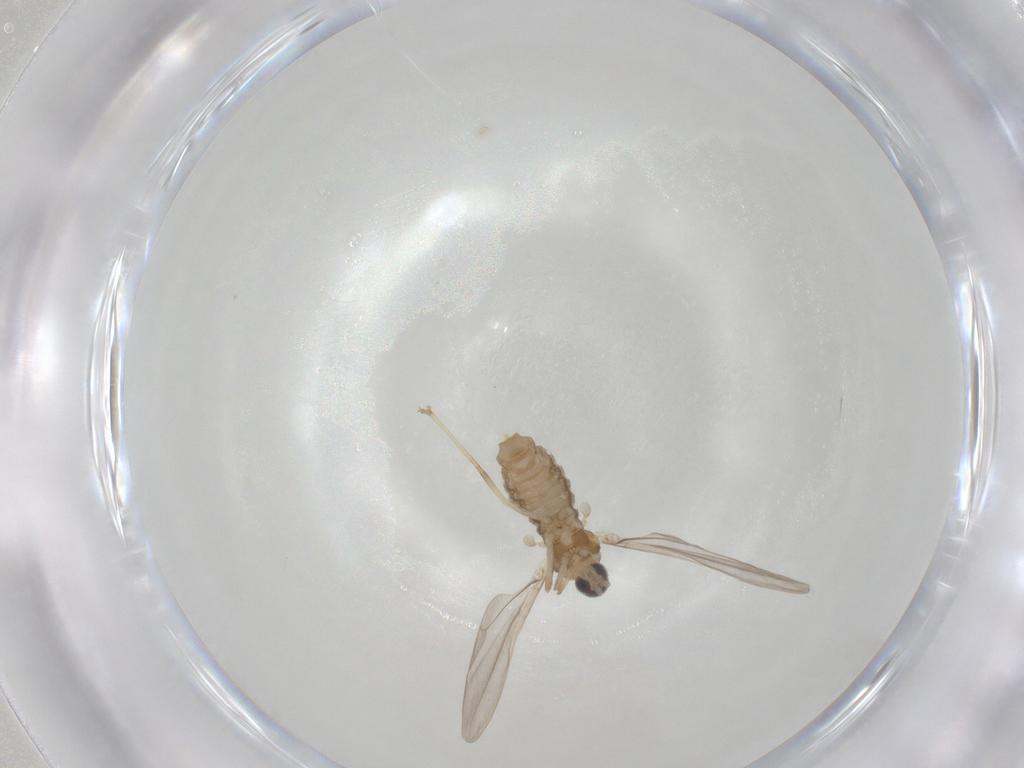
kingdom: Animalia
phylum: Arthropoda
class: Insecta
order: Diptera
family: Cecidomyiidae
